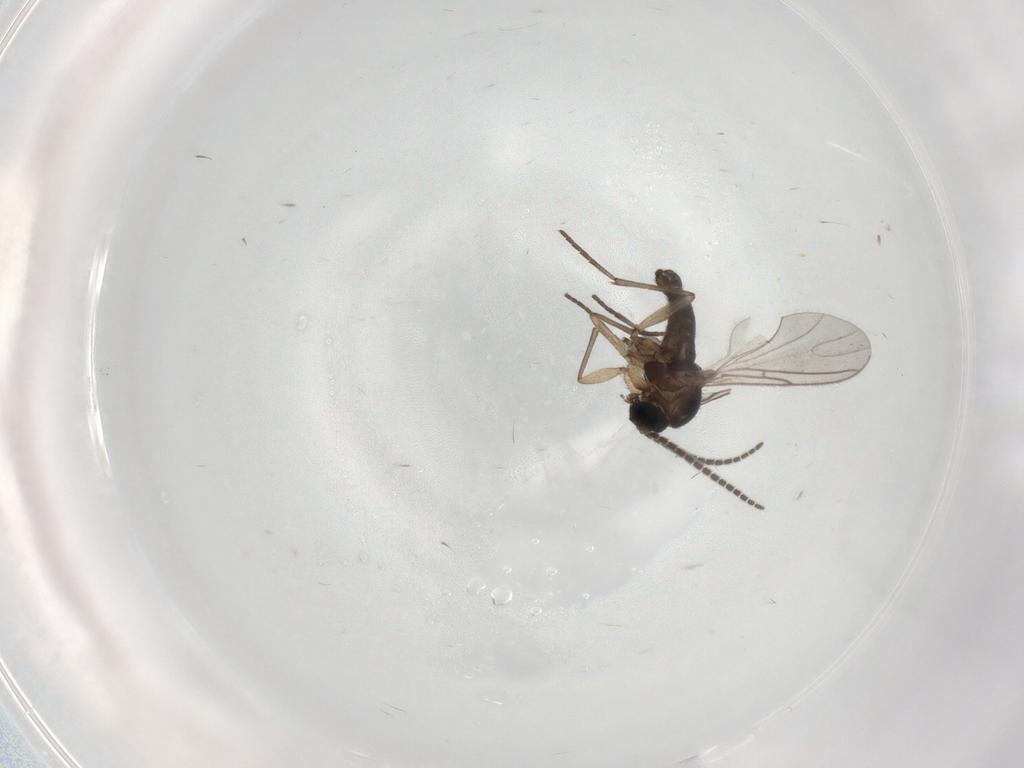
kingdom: Animalia
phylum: Arthropoda
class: Insecta
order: Diptera
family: Sciaridae
